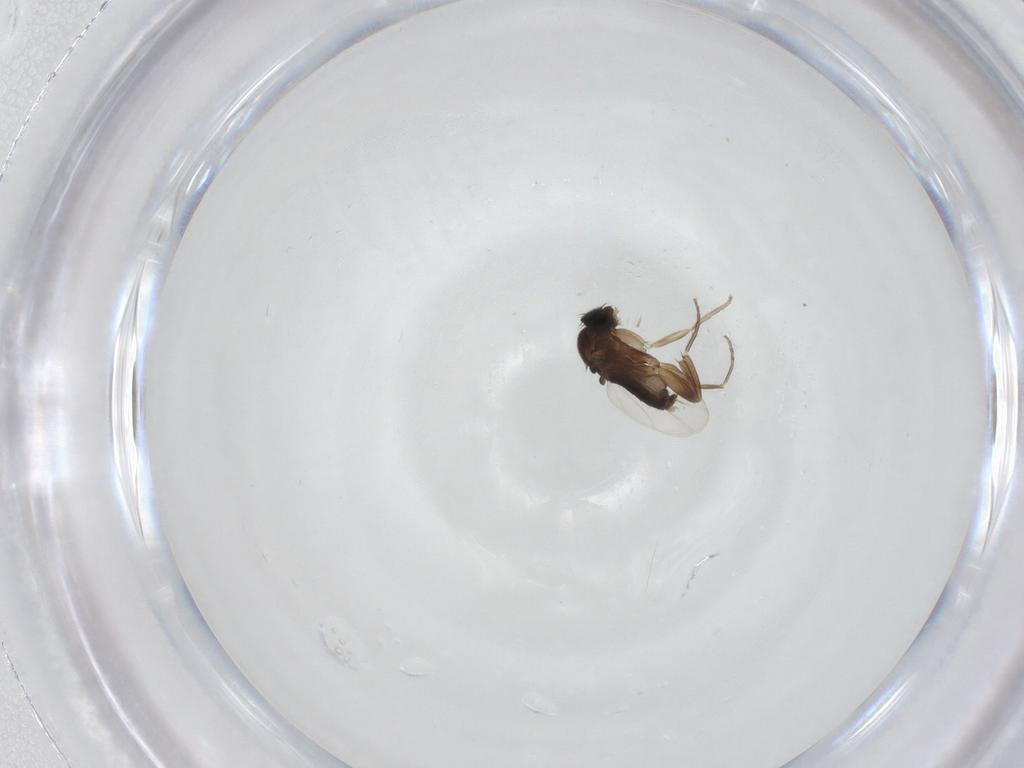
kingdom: Animalia
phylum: Arthropoda
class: Insecta
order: Diptera
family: Phoridae
